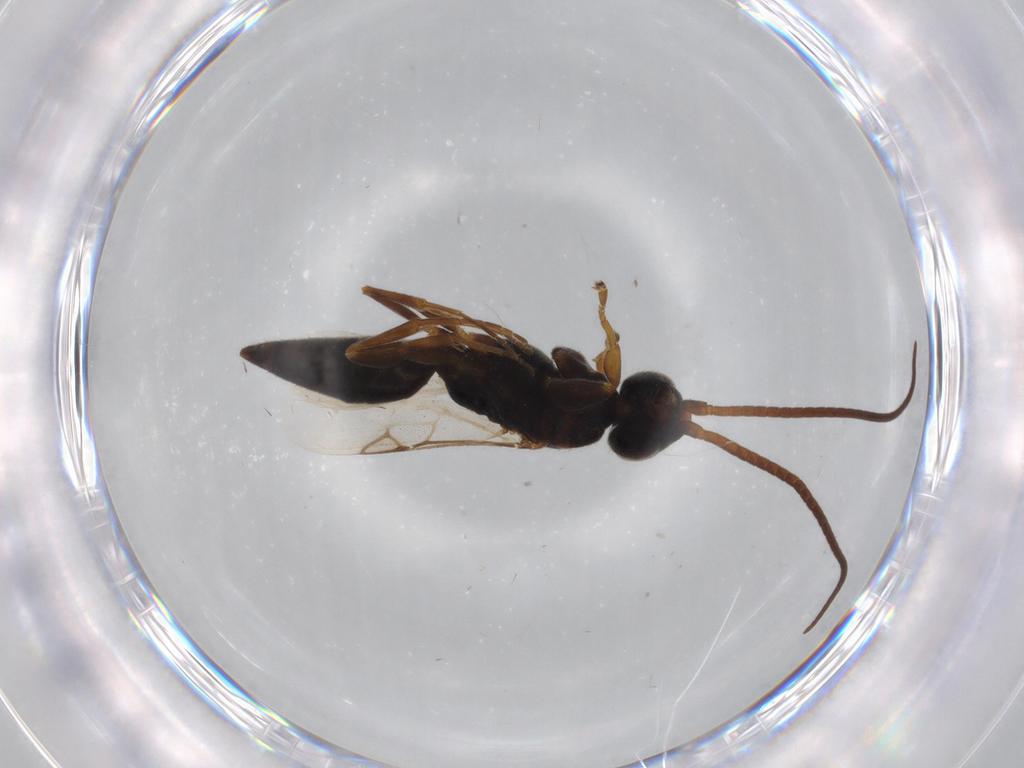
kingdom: Animalia
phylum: Arthropoda
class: Insecta
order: Hymenoptera
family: Sclerogibbidae
